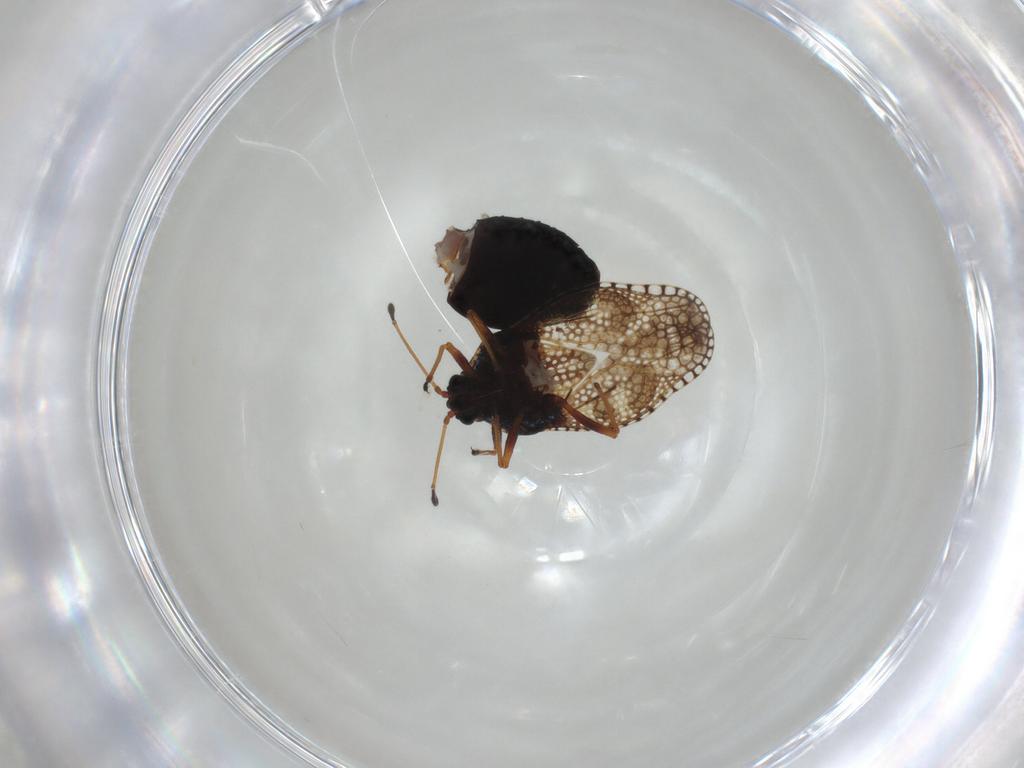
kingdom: Animalia
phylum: Arthropoda
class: Insecta
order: Hemiptera
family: Tingidae
